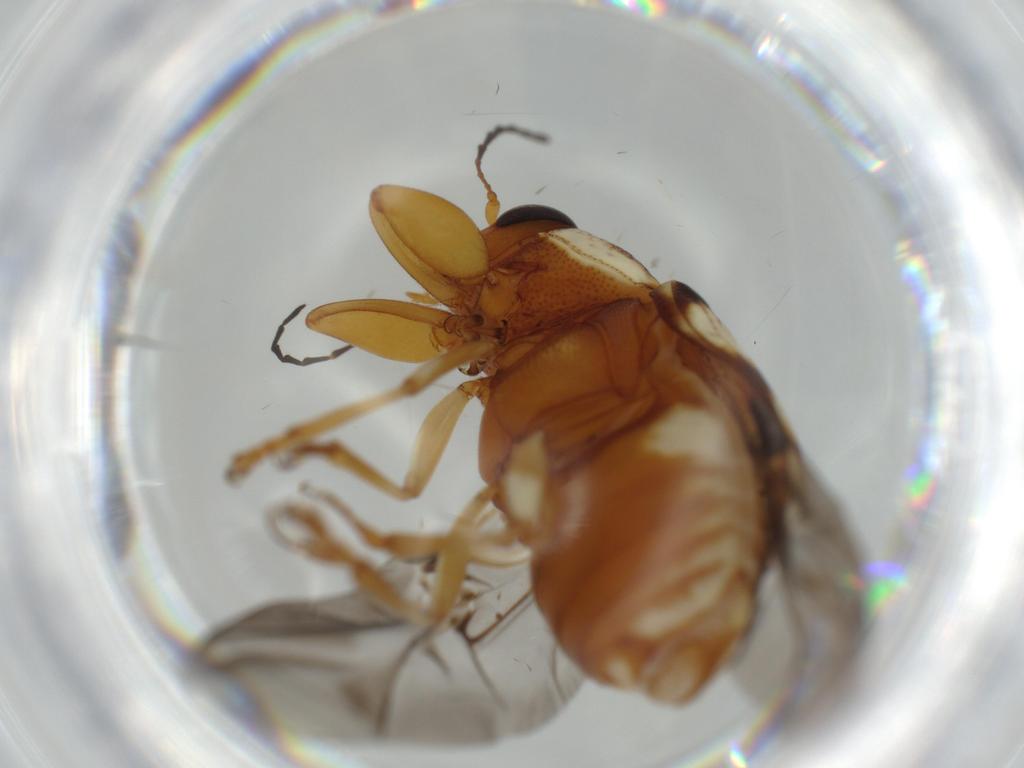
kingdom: Animalia
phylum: Arthropoda
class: Insecta
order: Coleoptera
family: Chrysomelidae
